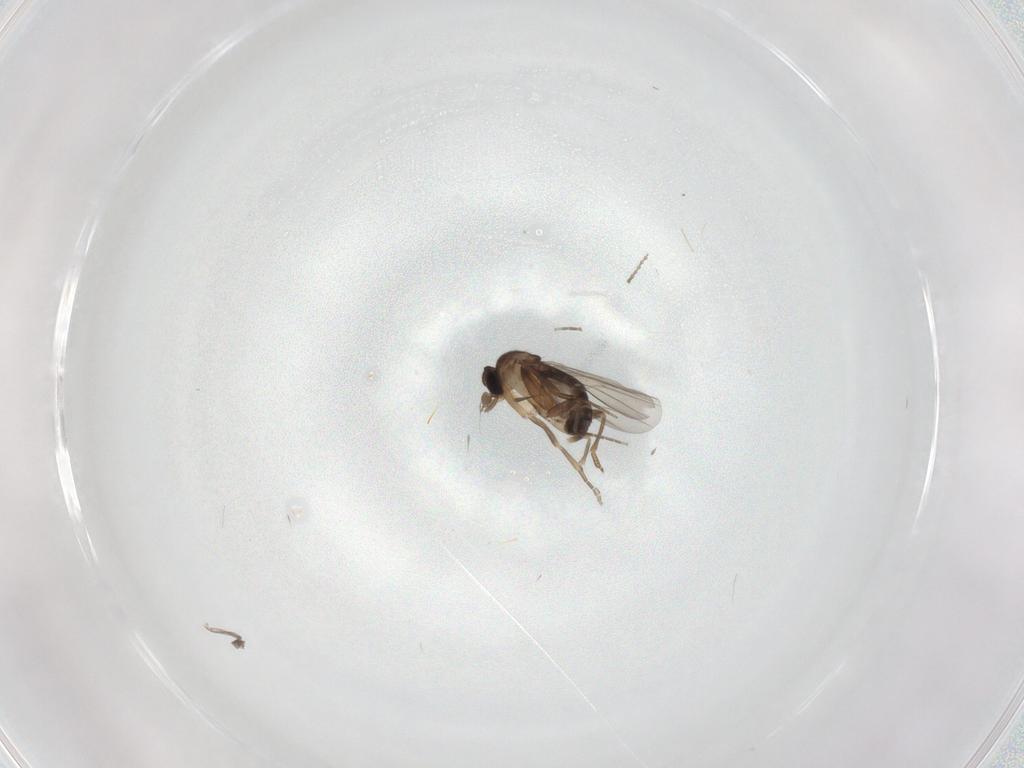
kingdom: Animalia
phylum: Arthropoda
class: Insecta
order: Diptera
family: Phoridae
